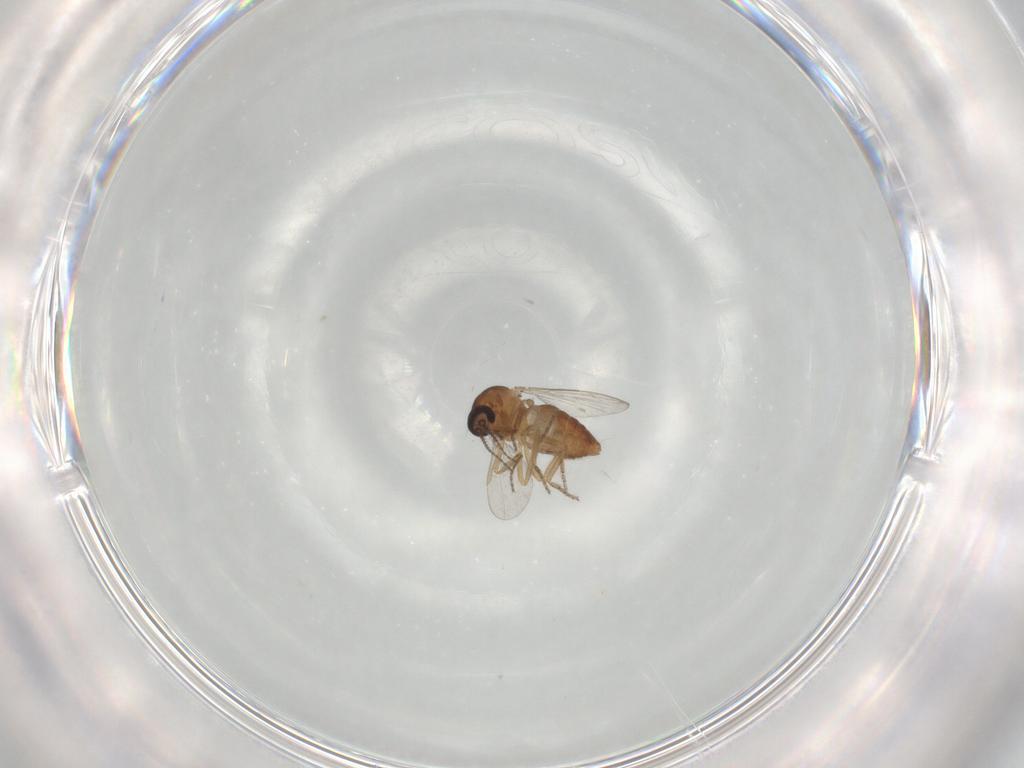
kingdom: Animalia
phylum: Arthropoda
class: Insecta
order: Diptera
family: Ceratopogonidae
